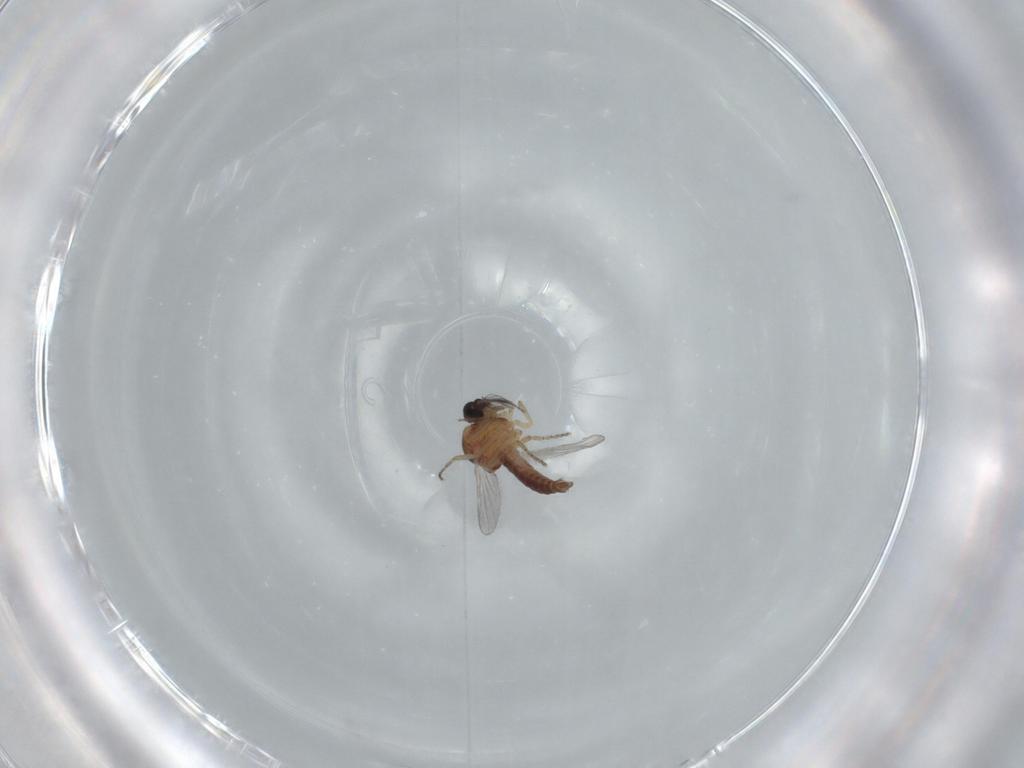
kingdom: Animalia
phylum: Arthropoda
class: Insecta
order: Diptera
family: Ceratopogonidae
